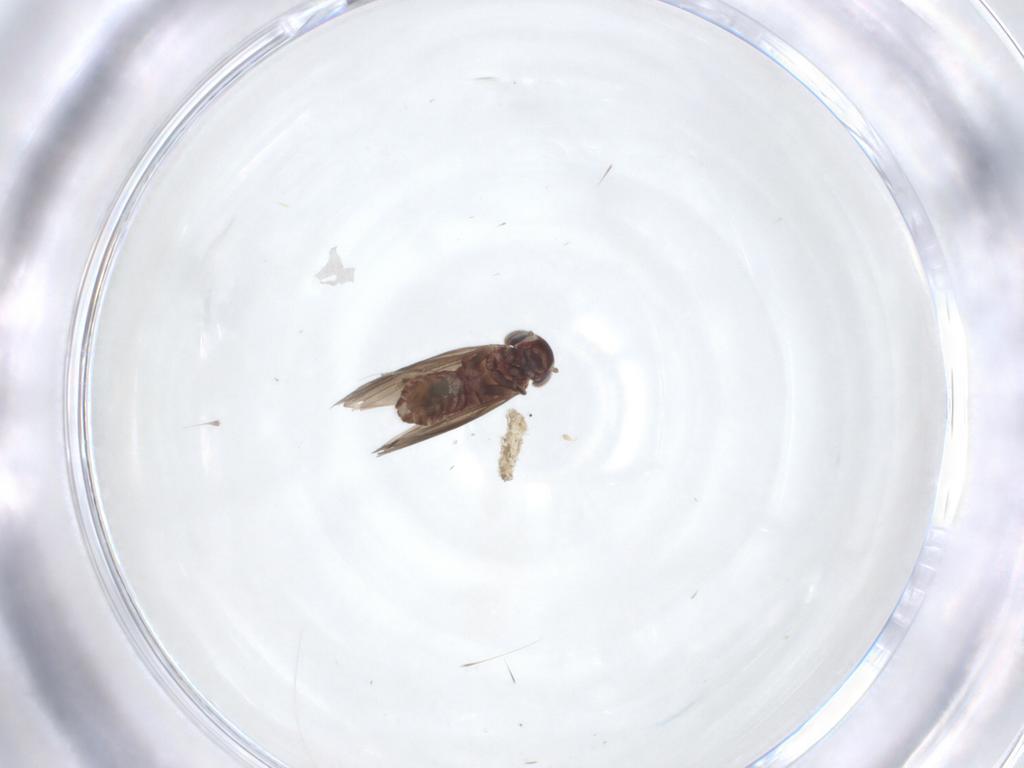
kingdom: Animalia
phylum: Arthropoda
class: Insecta
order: Psocodea
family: Amphientomidae
